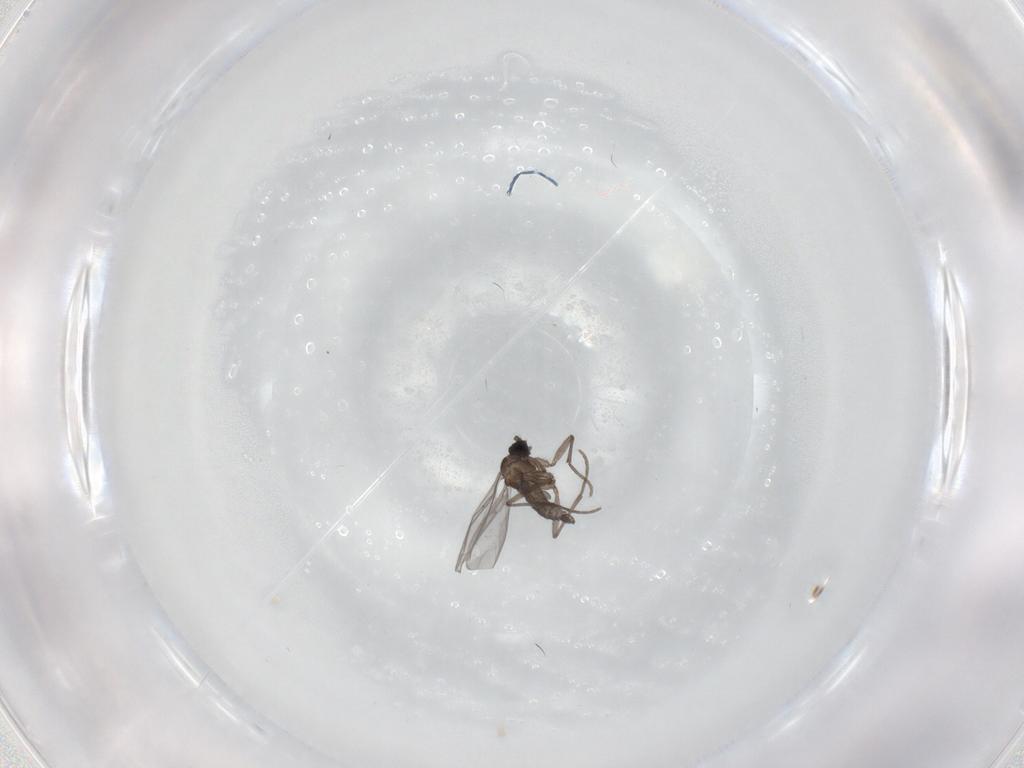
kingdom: Animalia
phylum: Arthropoda
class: Insecta
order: Diptera
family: Sciaridae
